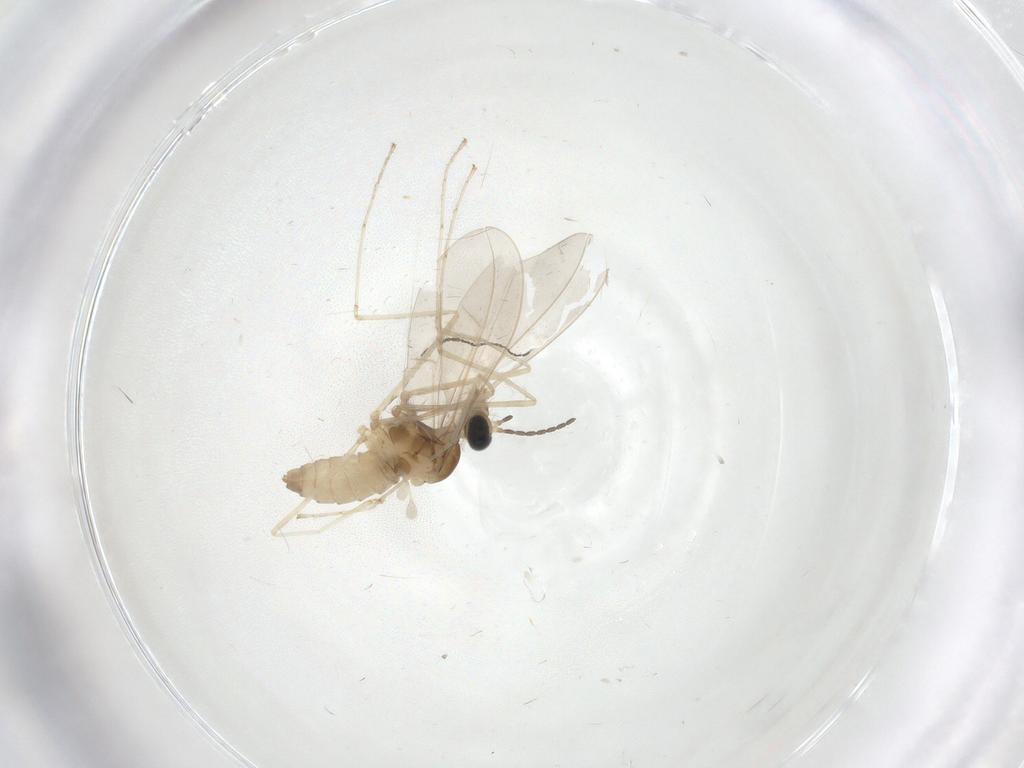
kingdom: Animalia
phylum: Arthropoda
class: Insecta
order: Diptera
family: Cecidomyiidae
